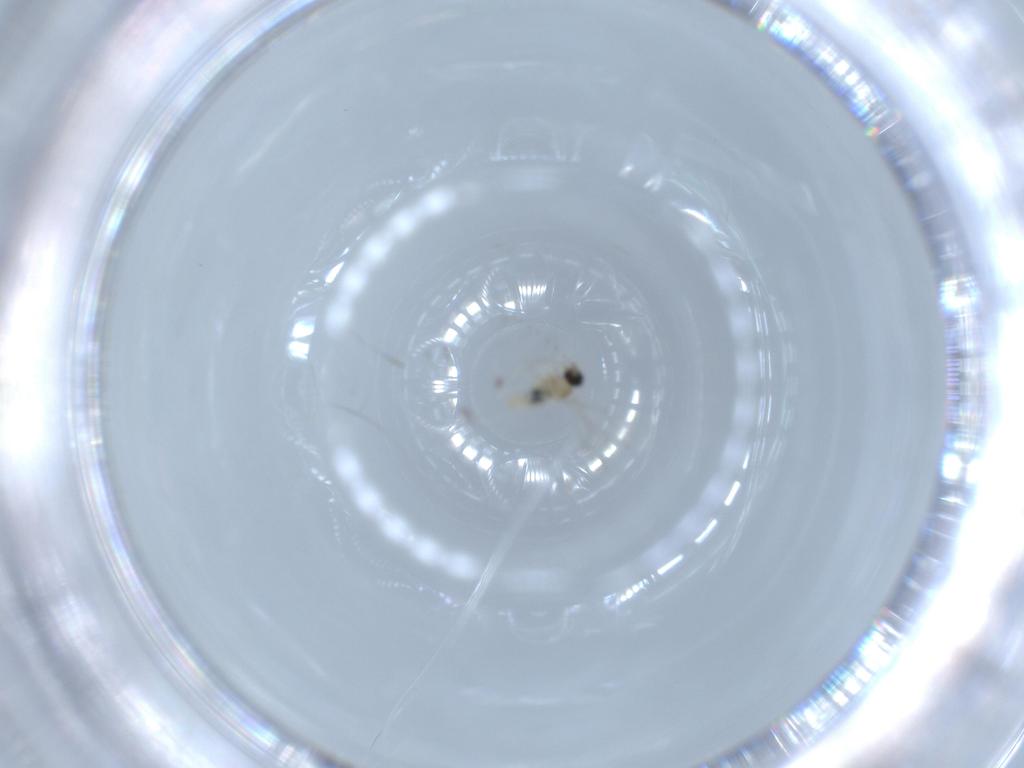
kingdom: Animalia
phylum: Arthropoda
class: Insecta
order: Diptera
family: Cecidomyiidae
